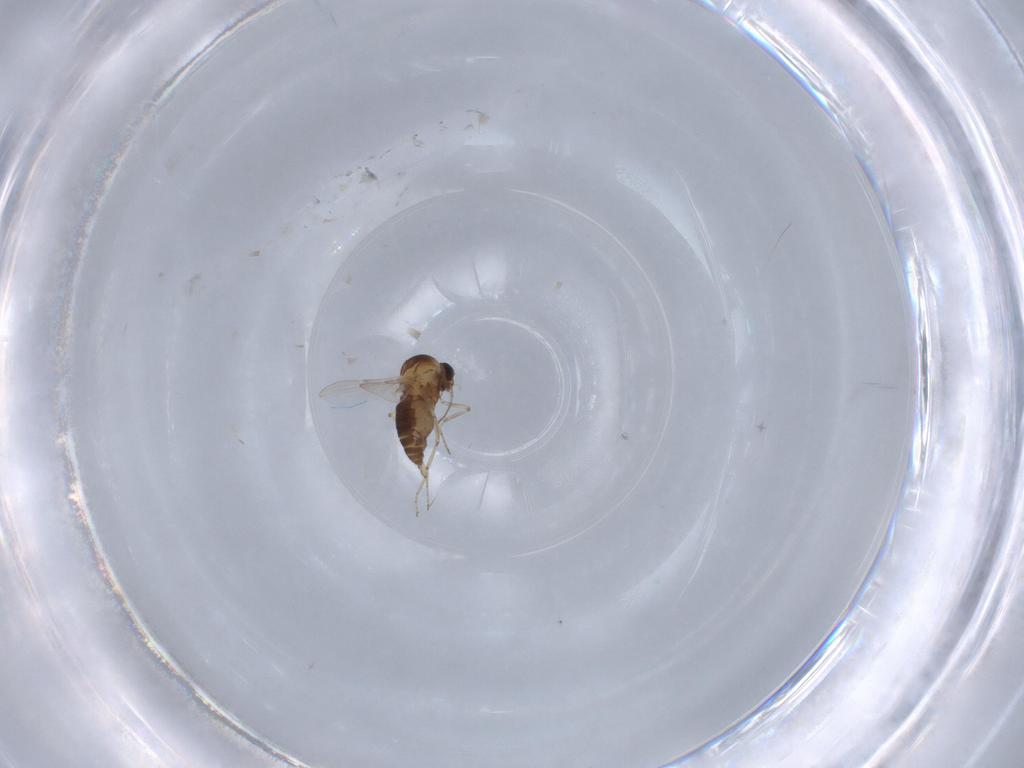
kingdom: Animalia
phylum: Arthropoda
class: Insecta
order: Diptera
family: Ceratopogonidae
